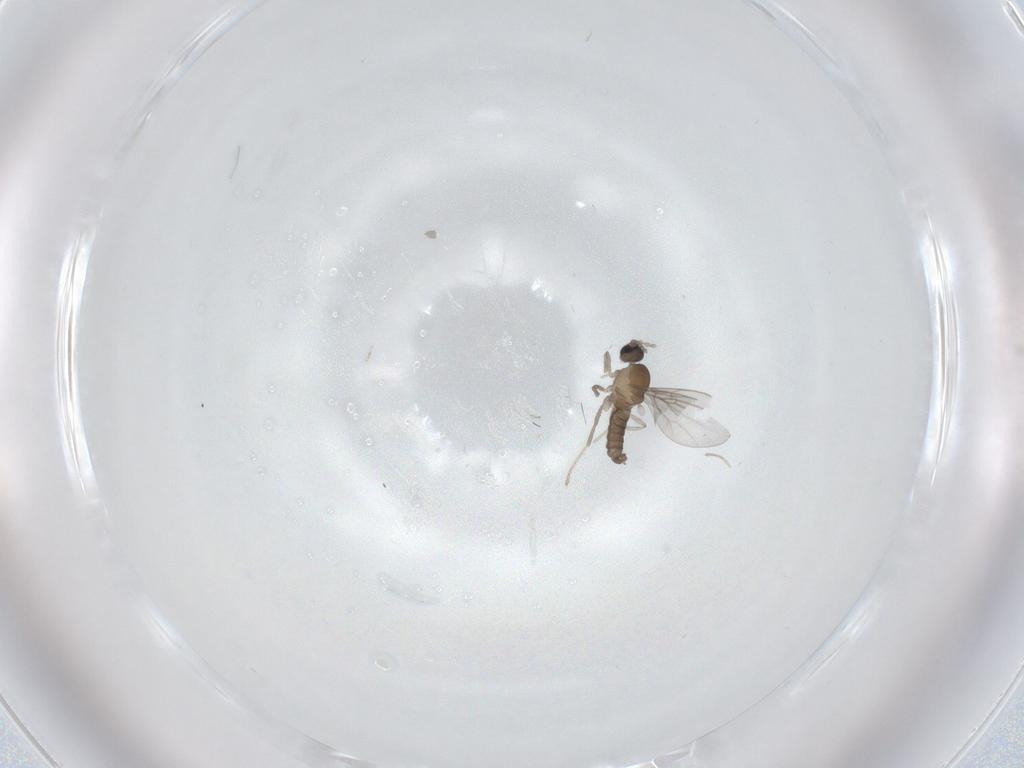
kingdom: Animalia
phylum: Arthropoda
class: Insecta
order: Diptera
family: Cecidomyiidae
